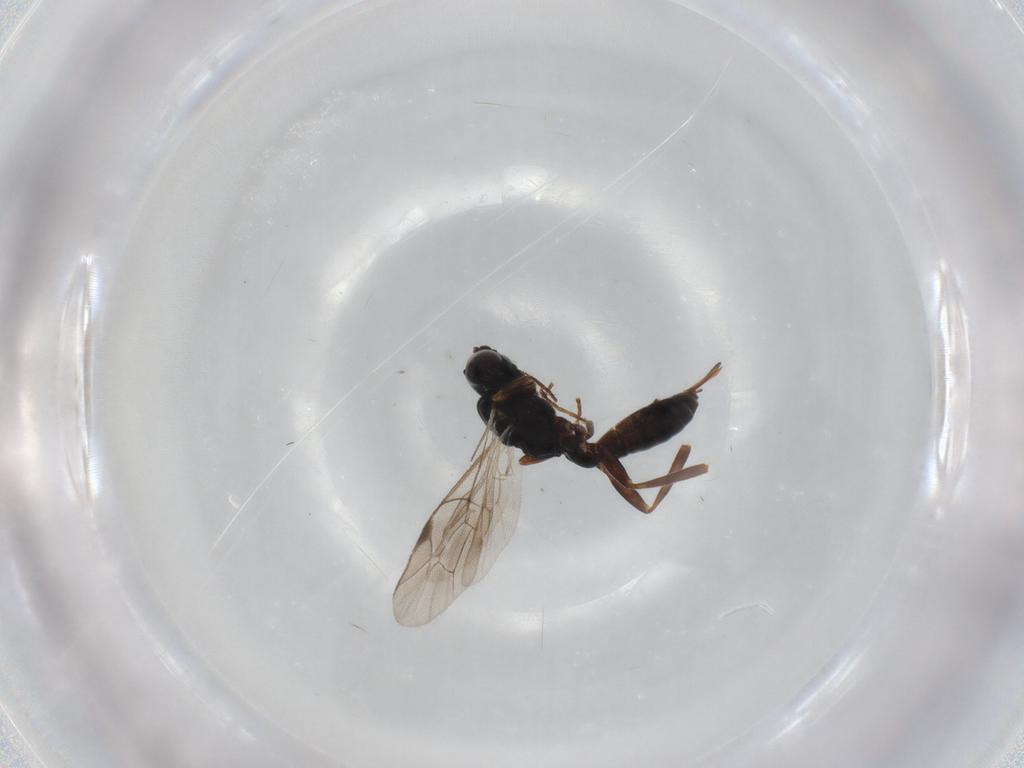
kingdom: Animalia
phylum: Arthropoda
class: Insecta
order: Hymenoptera
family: Ichneumonidae
